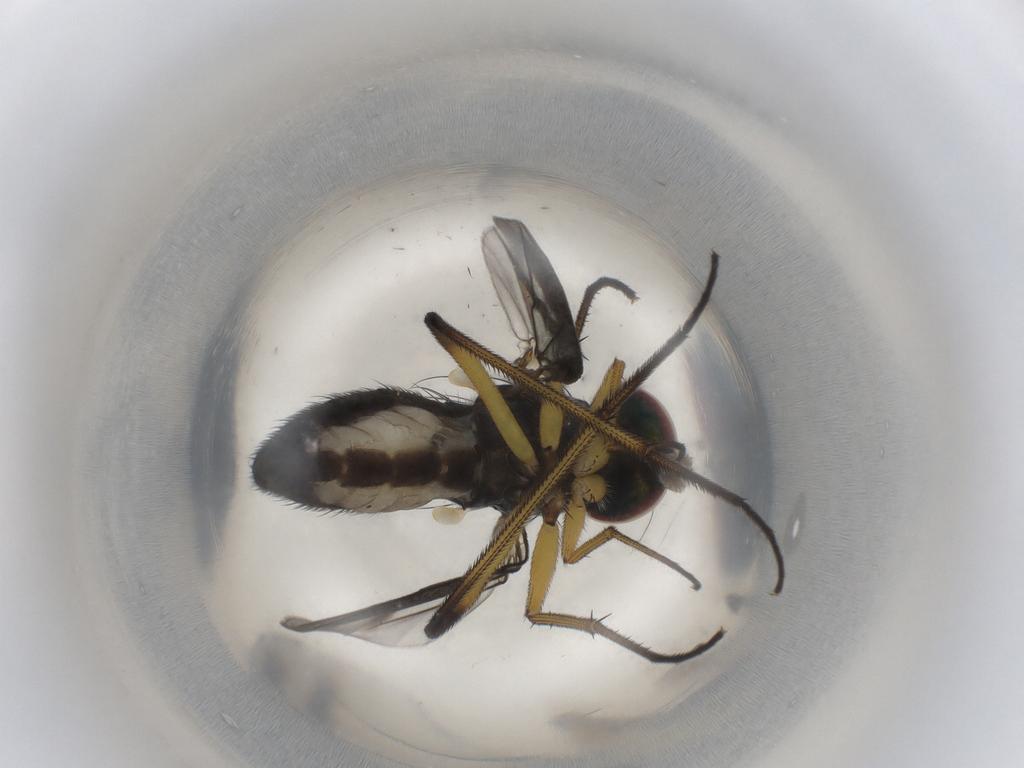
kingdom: Animalia
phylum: Arthropoda
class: Insecta
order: Diptera
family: Dolichopodidae
